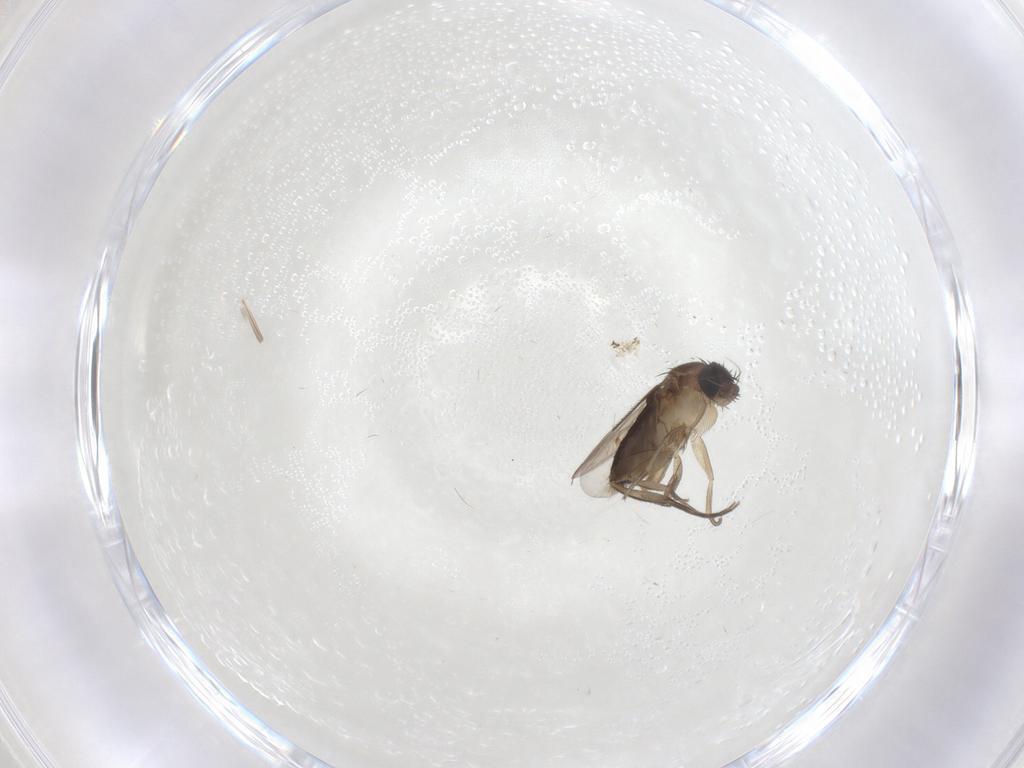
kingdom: Animalia
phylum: Arthropoda
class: Insecta
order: Diptera
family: Phoridae
